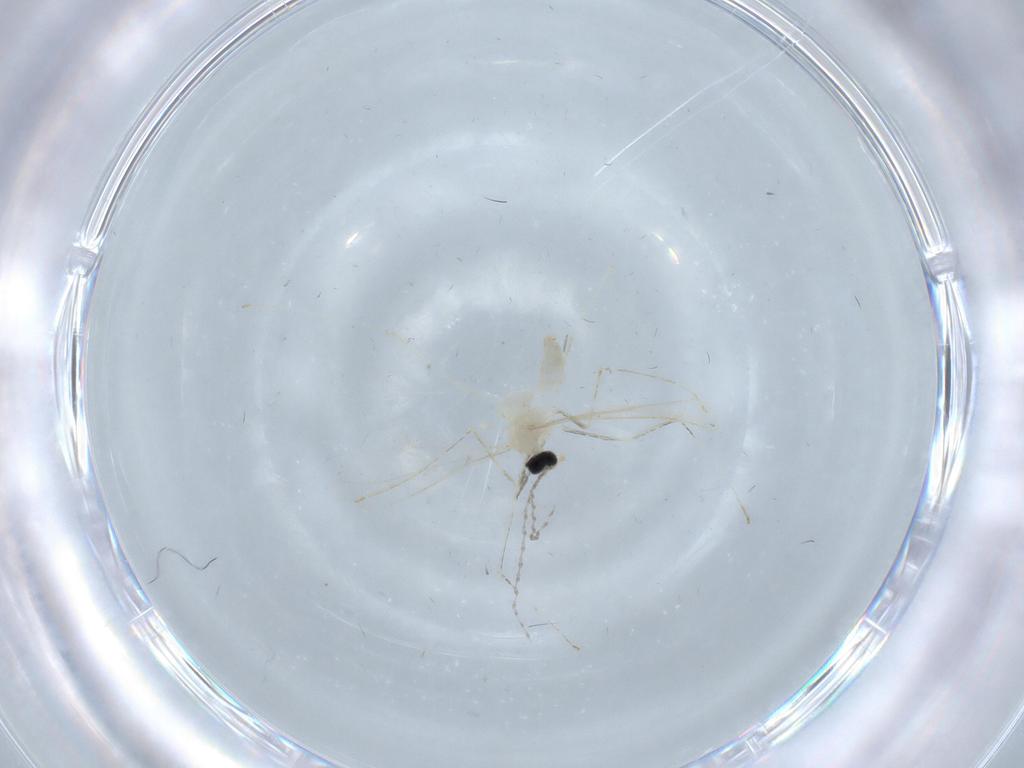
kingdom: Animalia
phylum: Arthropoda
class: Insecta
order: Diptera
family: Cecidomyiidae
